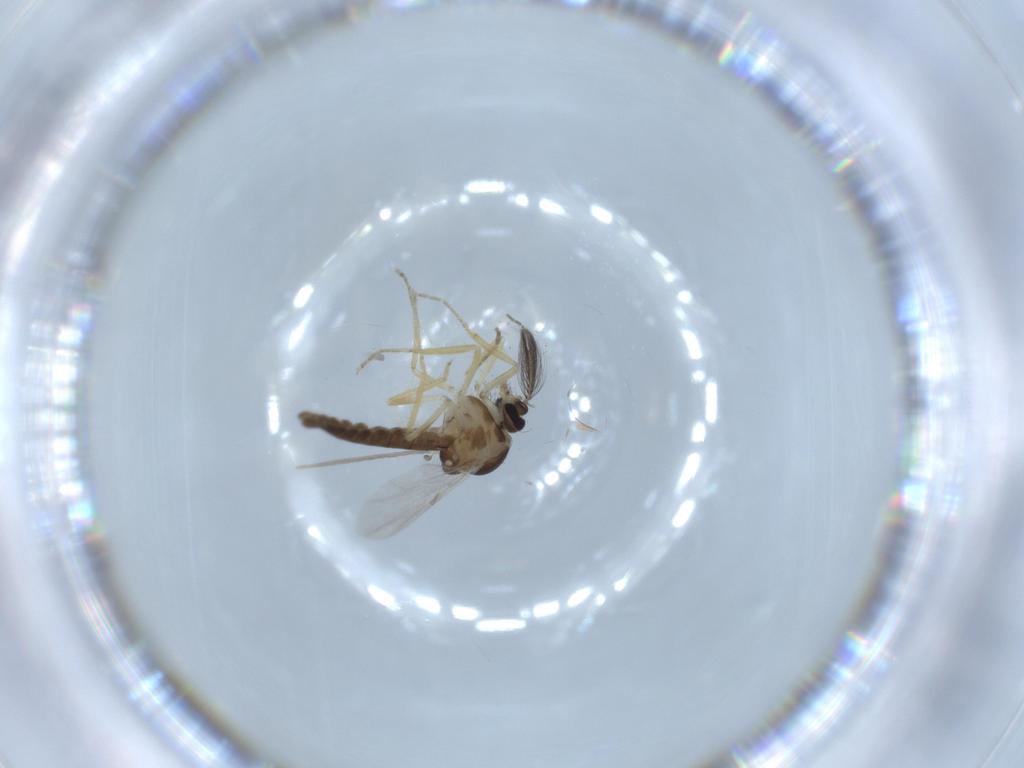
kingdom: Animalia
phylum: Arthropoda
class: Insecta
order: Diptera
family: Ceratopogonidae
